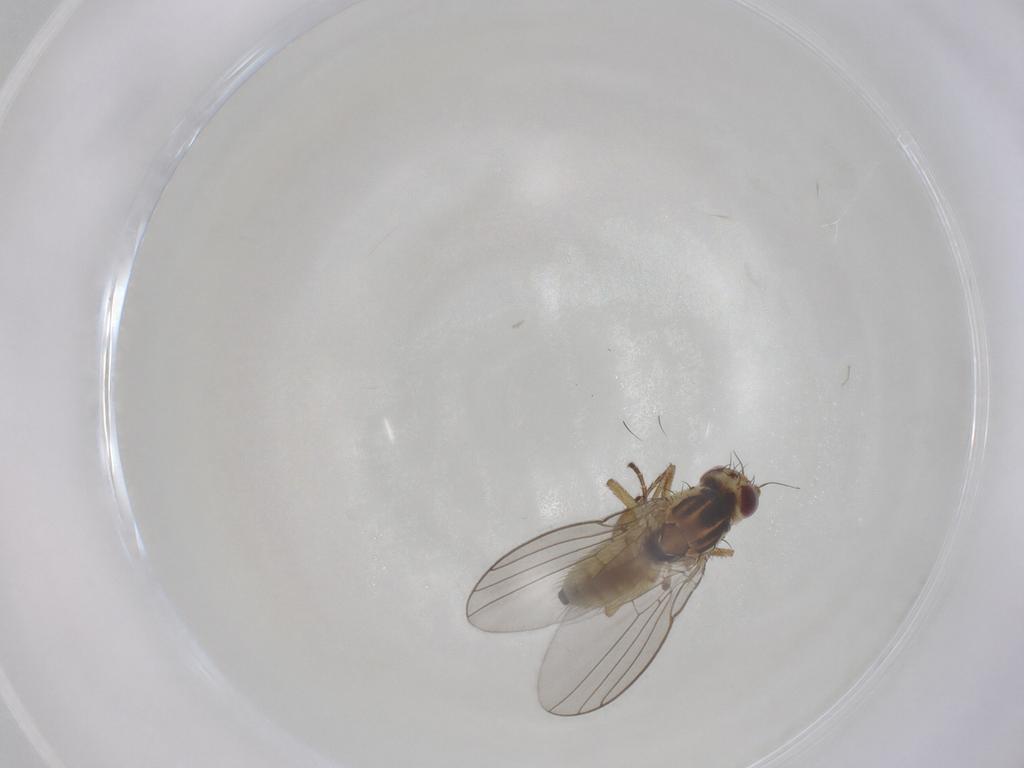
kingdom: Animalia
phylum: Arthropoda
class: Insecta
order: Diptera
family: Agromyzidae
